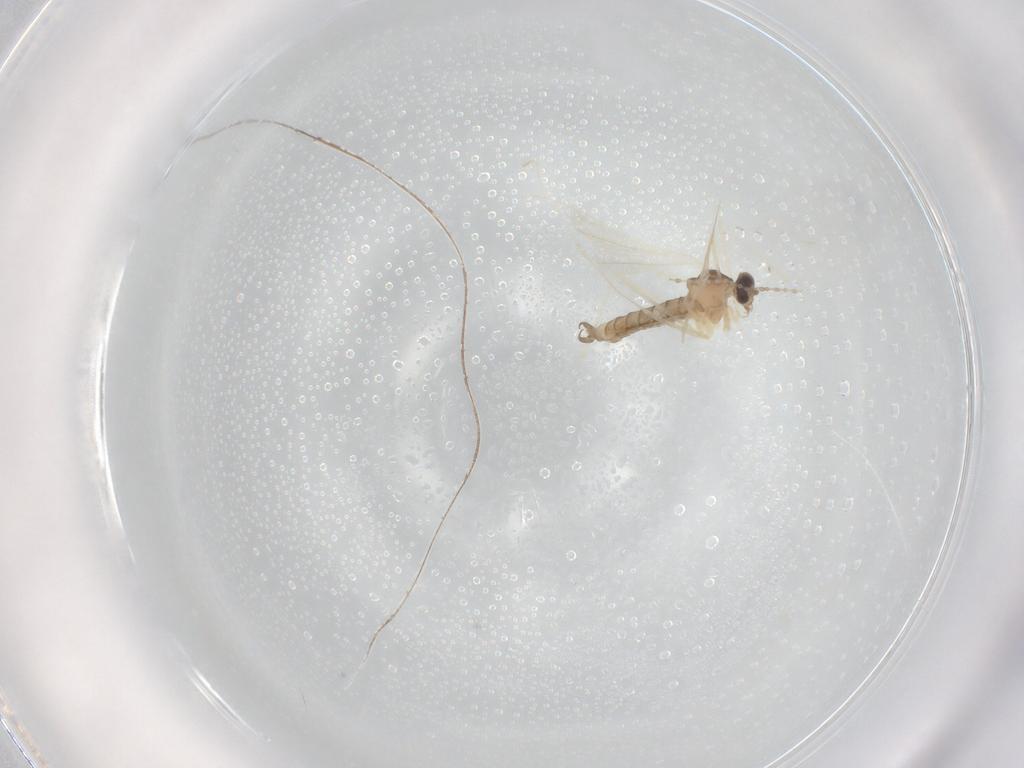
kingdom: Animalia
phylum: Arthropoda
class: Insecta
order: Diptera
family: Cecidomyiidae
